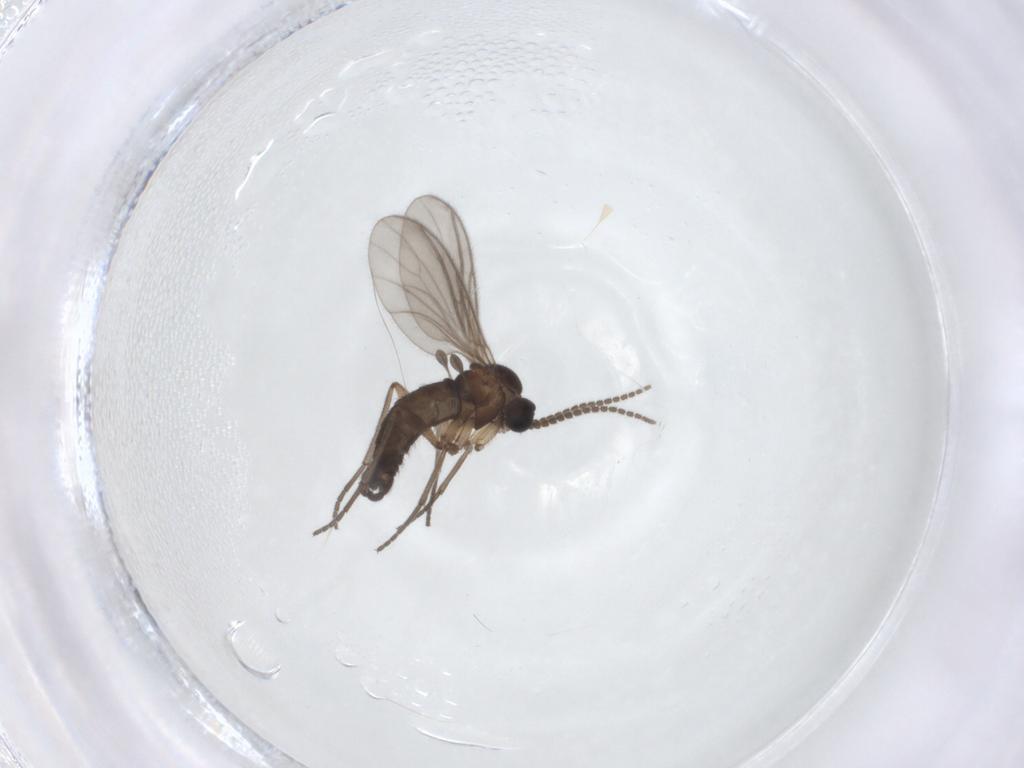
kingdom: Animalia
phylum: Arthropoda
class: Insecta
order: Diptera
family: Sciaridae
